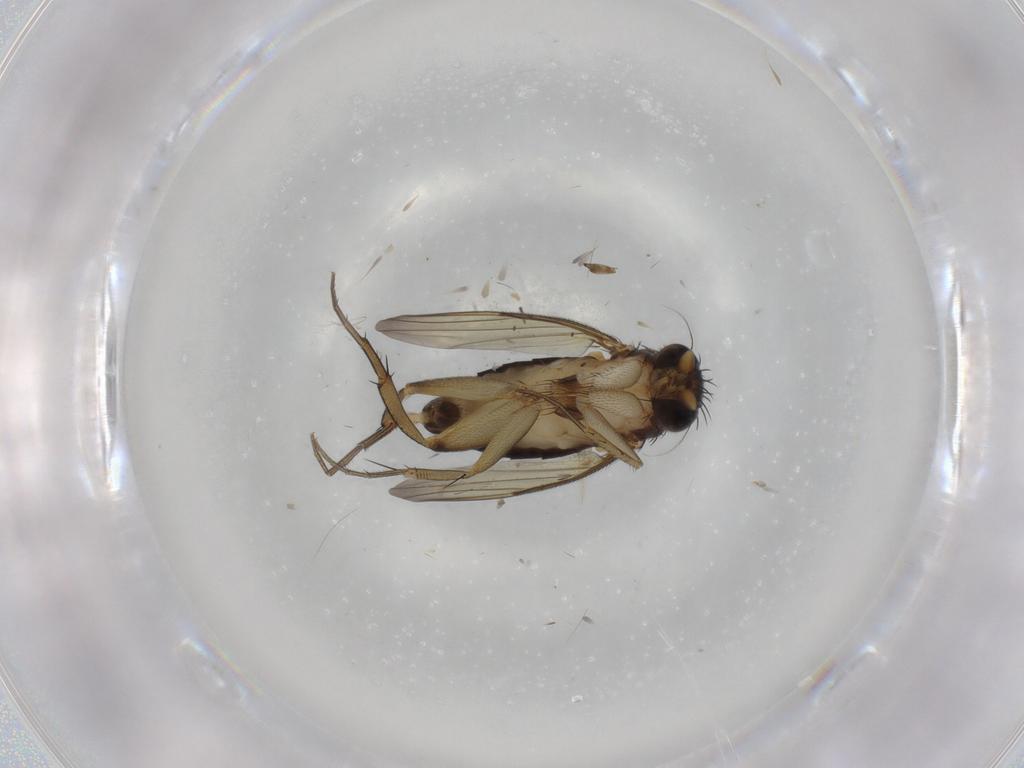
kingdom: Animalia
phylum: Arthropoda
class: Insecta
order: Diptera
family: Phoridae
